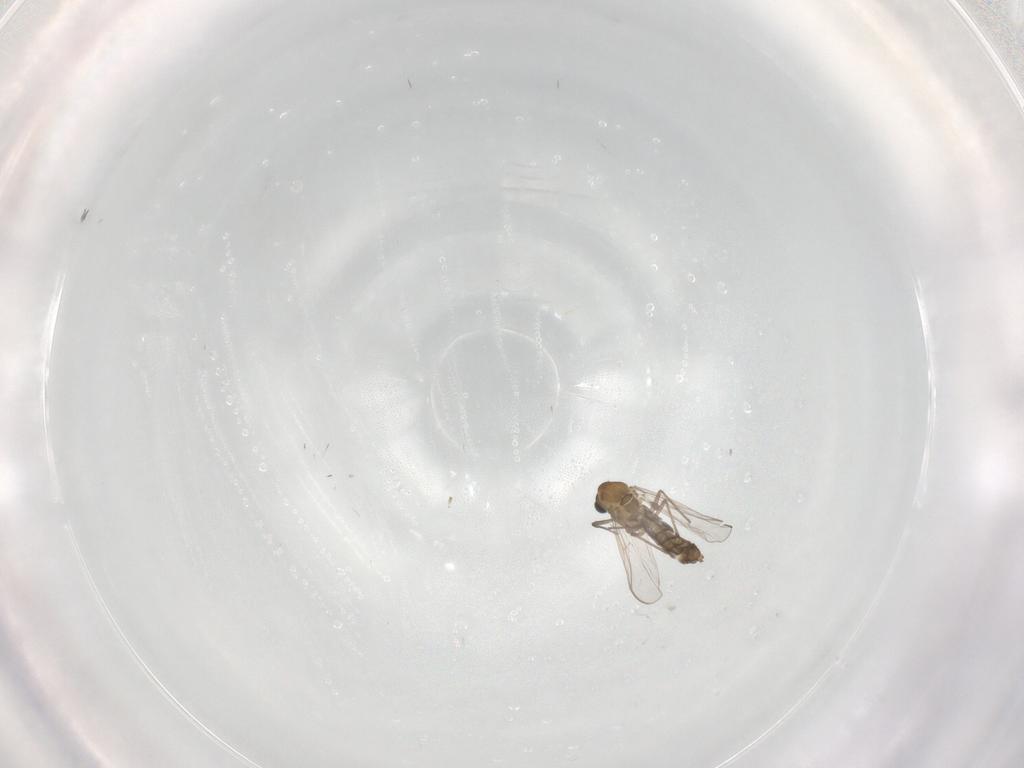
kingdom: Animalia
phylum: Arthropoda
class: Insecta
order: Diptera
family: Chironomidae
